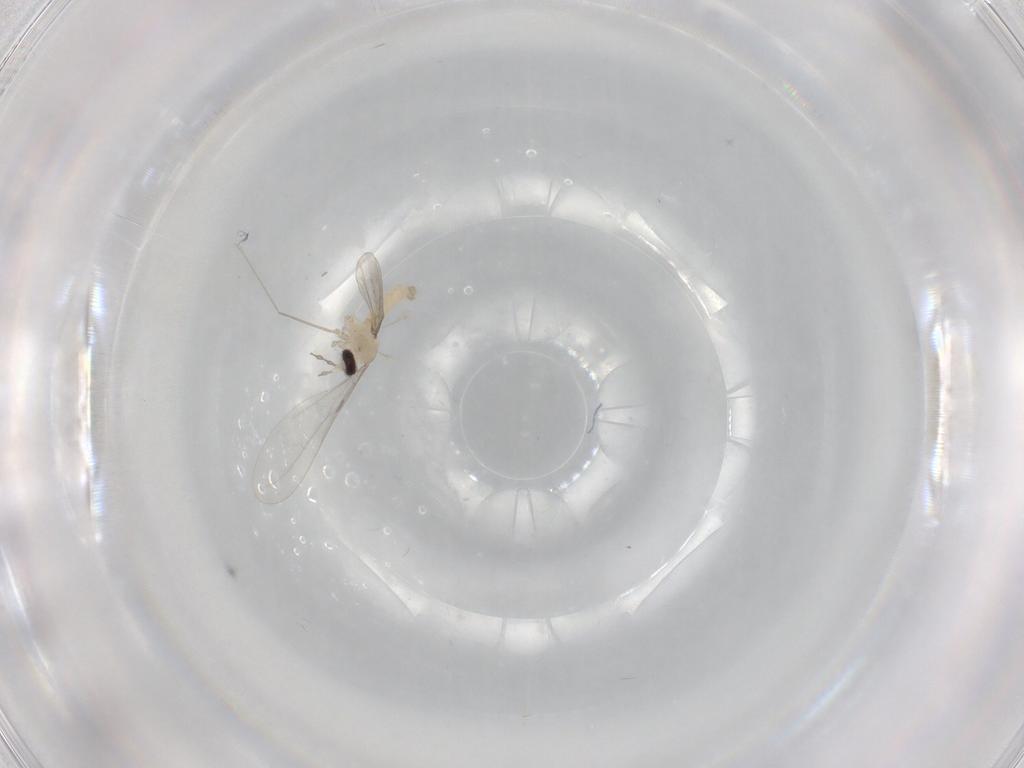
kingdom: Animalia
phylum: Arthropoda
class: Insecta
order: Diptera
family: Cecidomyiidae
